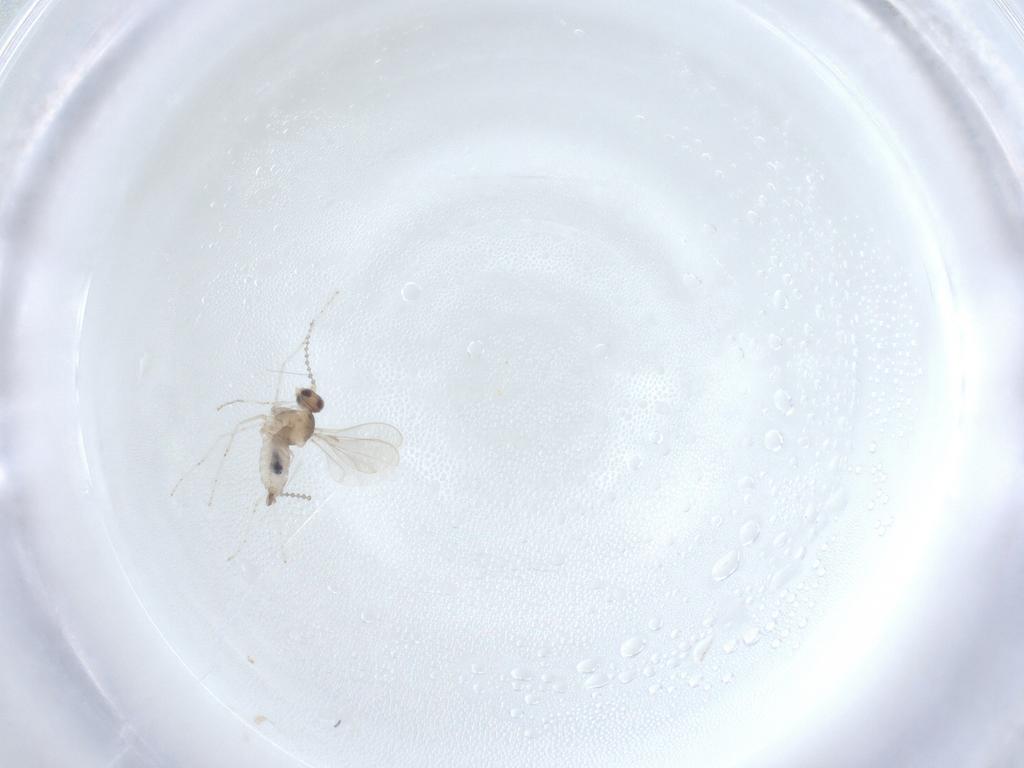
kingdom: Animalia
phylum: Arthropoda
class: Insecta
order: Diptera
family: Cecidomyiidae
